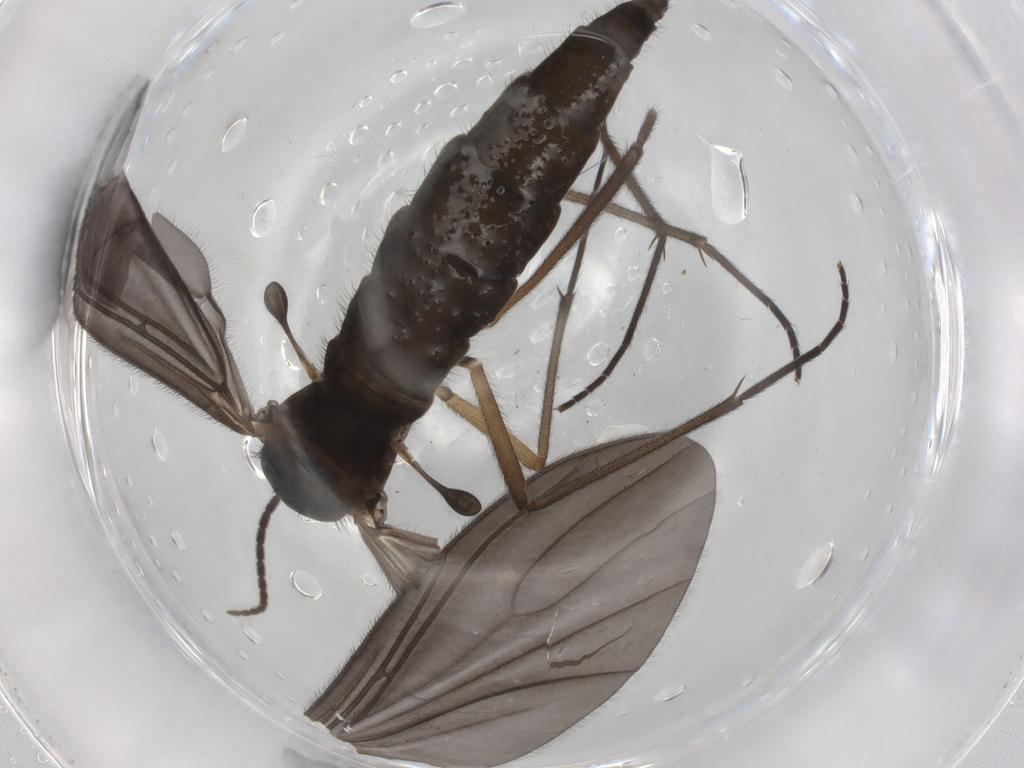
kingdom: Animalia
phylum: Arthropoda
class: Insecta
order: Diptera
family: Sciaridae
